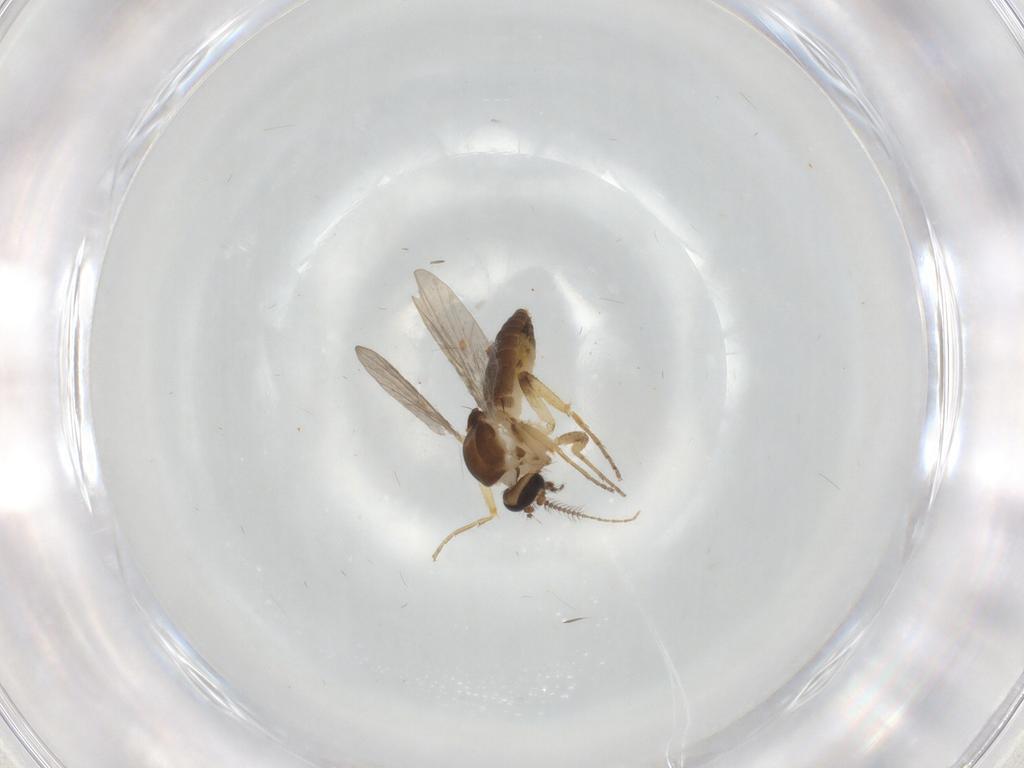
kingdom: Animalia
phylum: Arthropoda
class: Insecta
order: Diptera
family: Ceratopogonidae
